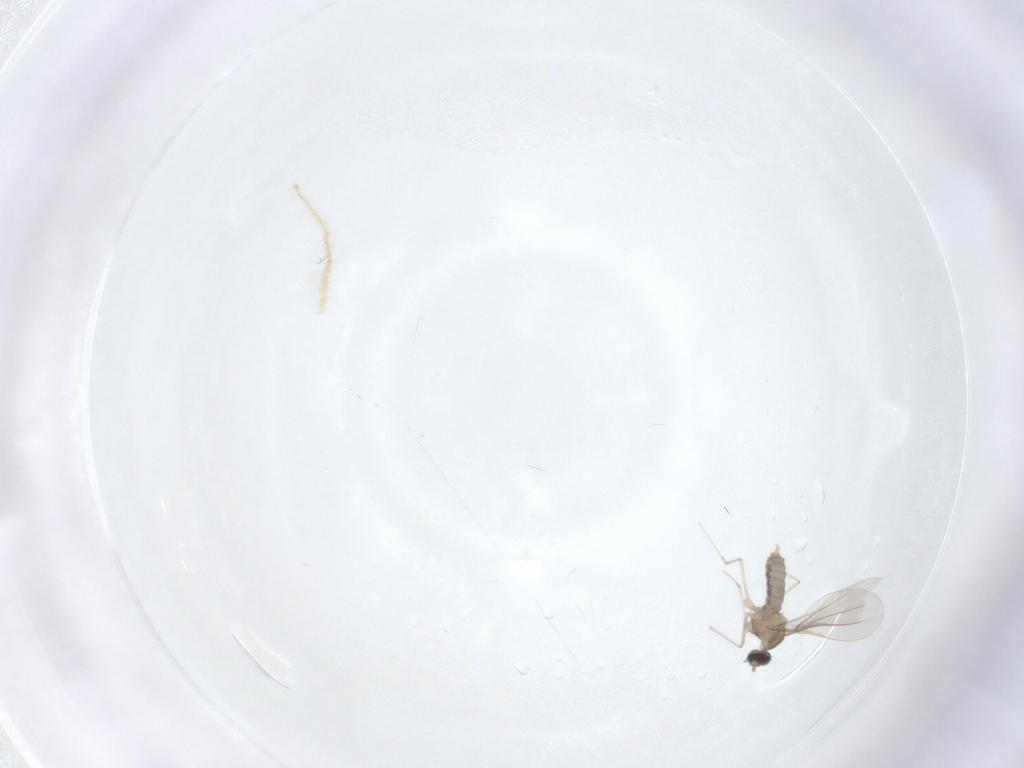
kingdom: Animalia
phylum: Arthropoda
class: Insecta
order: Diptera
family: Cecidomyiidae
